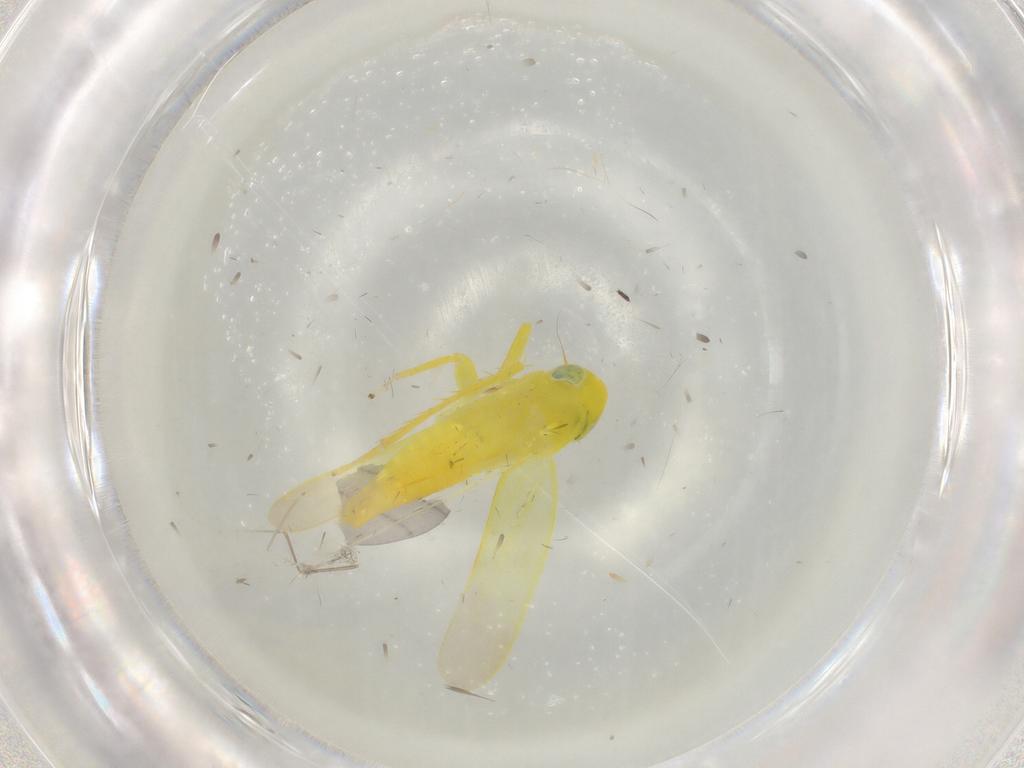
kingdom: Animalia
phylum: Arthropoda
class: Insecta
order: Hemiptera
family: Cicadellidae
